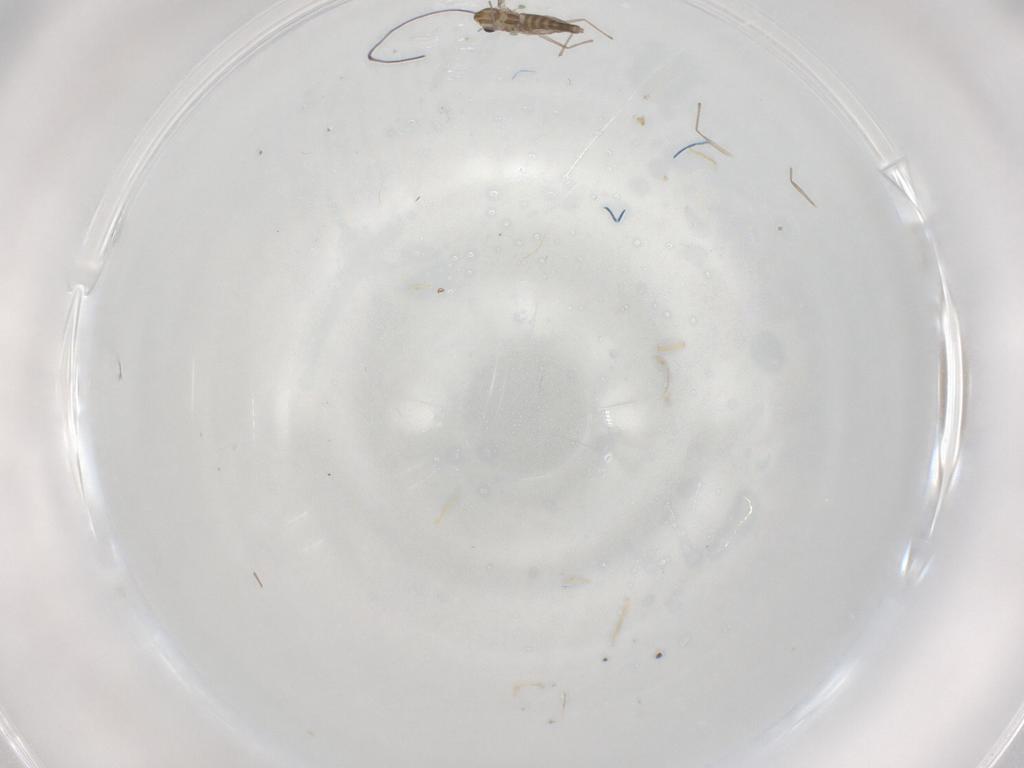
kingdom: Animalia
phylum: Arthropoda
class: Insecta
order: Diptera
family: Chironomidae
